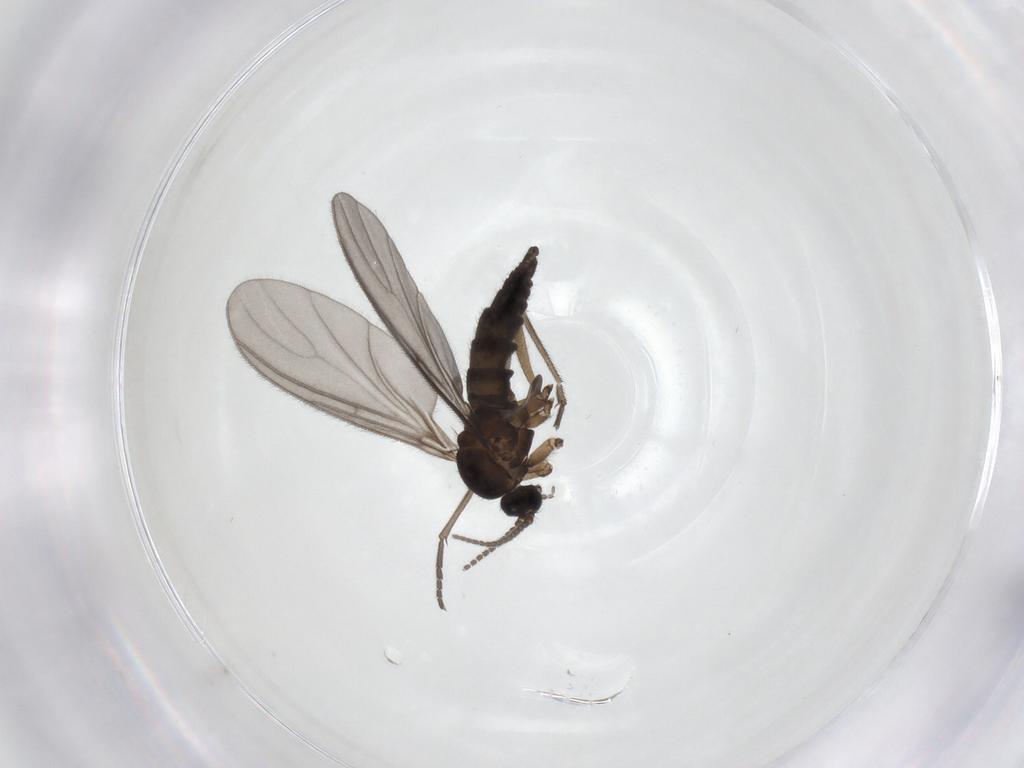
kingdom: Animalia
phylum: Arthropoda
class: Insecta
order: Diptera
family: Sciaridae
